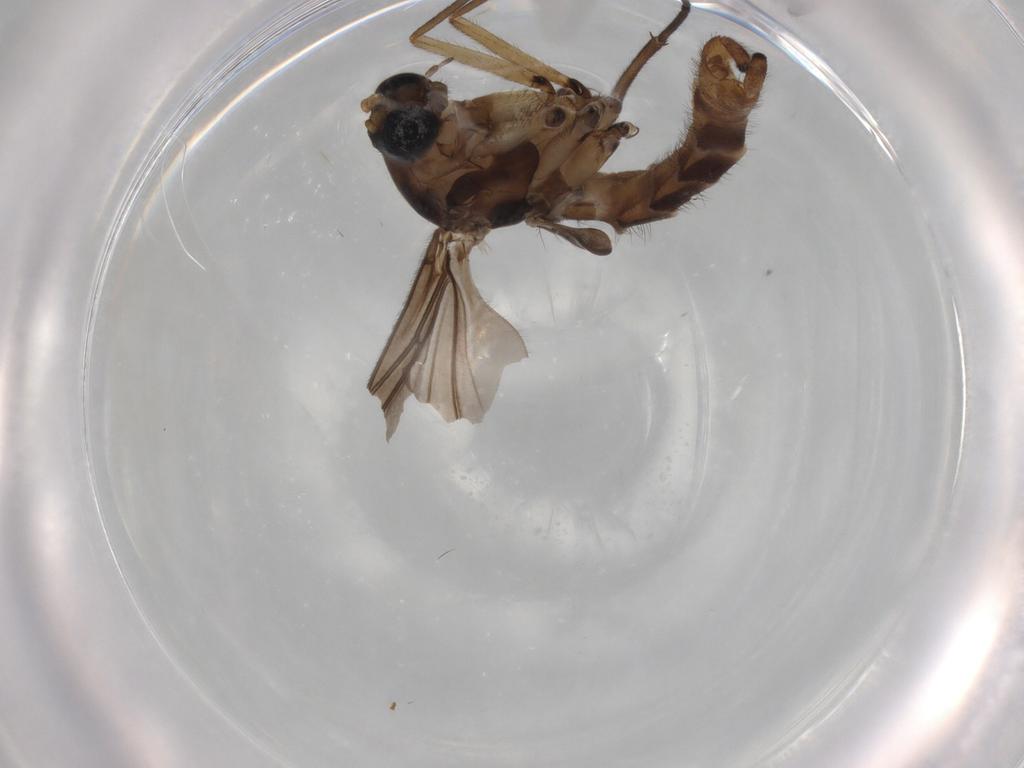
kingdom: Animalia
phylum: Arthropoda
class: Insecta
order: Diptera
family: Sciaridae
